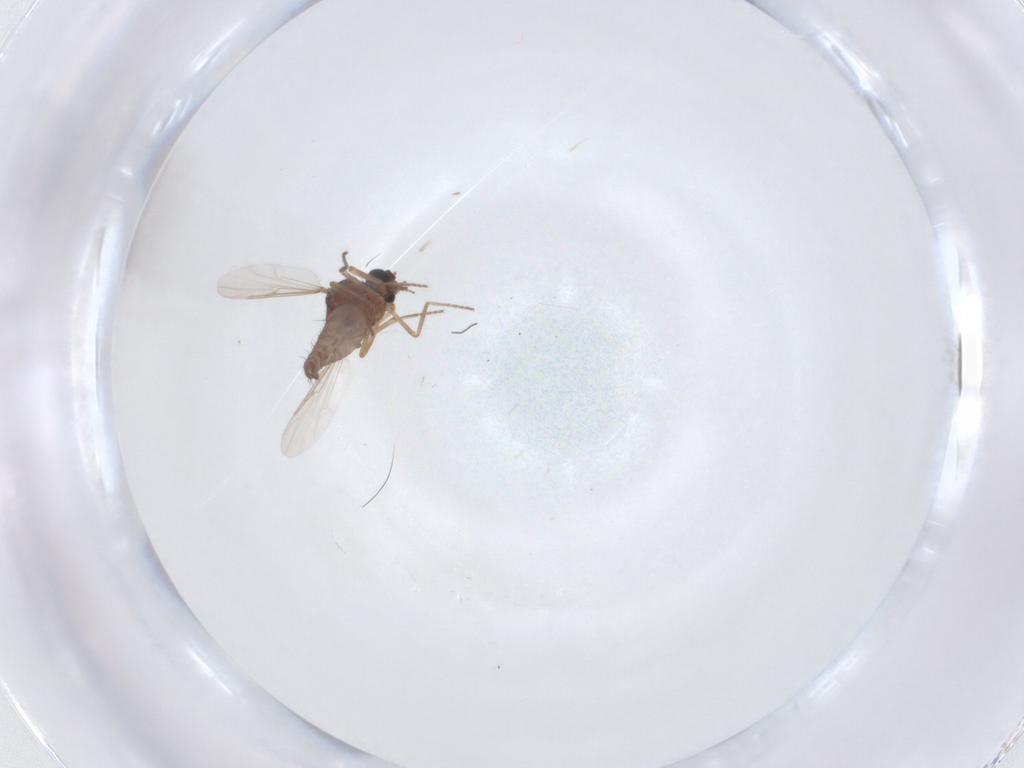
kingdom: Animalia
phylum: Arthropoda
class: Insecta
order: Diptera
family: Ceratopogonidae
